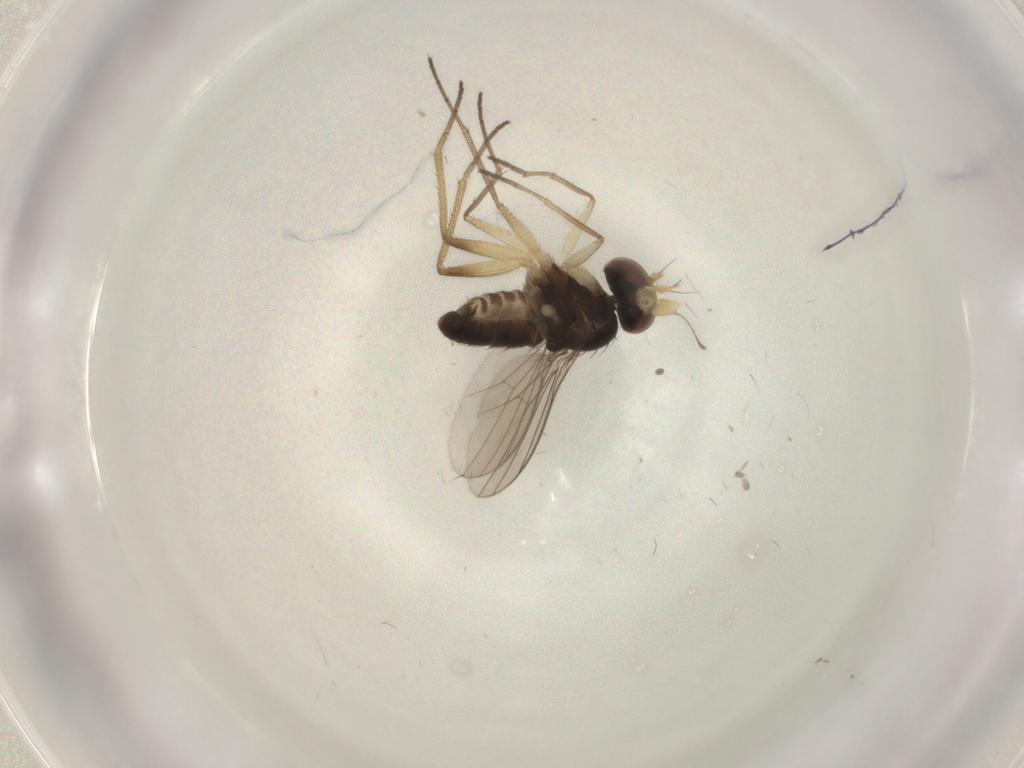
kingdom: Animalia
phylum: Arthropoda
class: Insecta
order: Diptera
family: Dolichopodidae
